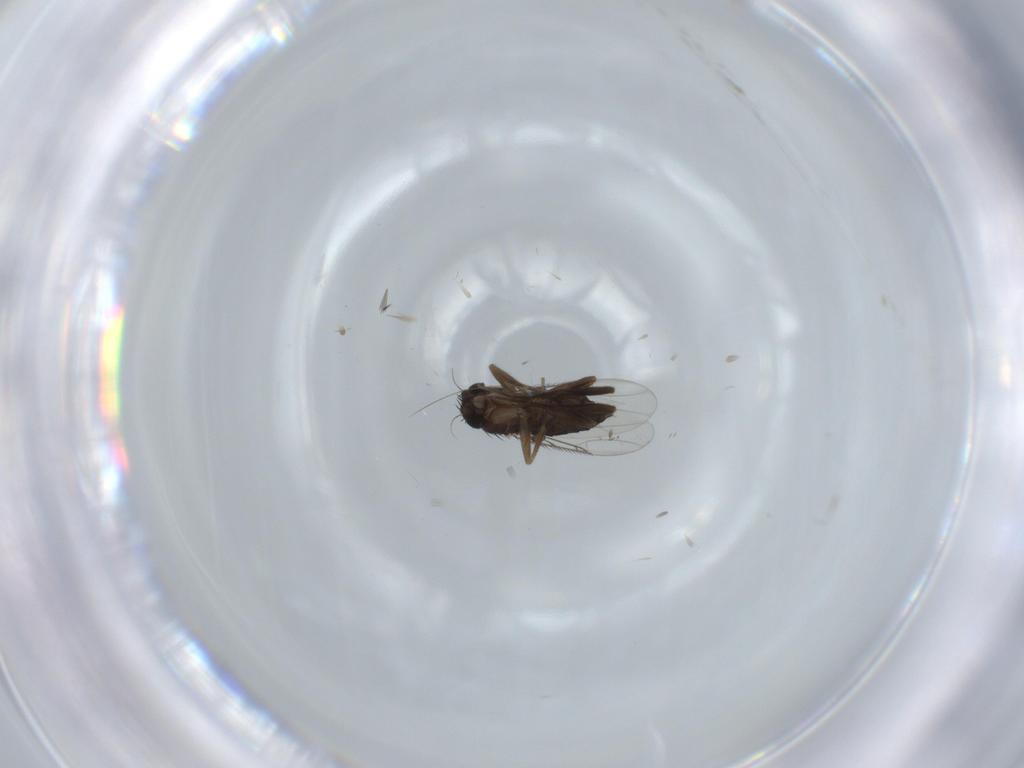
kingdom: Animalia
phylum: Arthropoda
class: Insecta
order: Diptera
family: Phoridae
